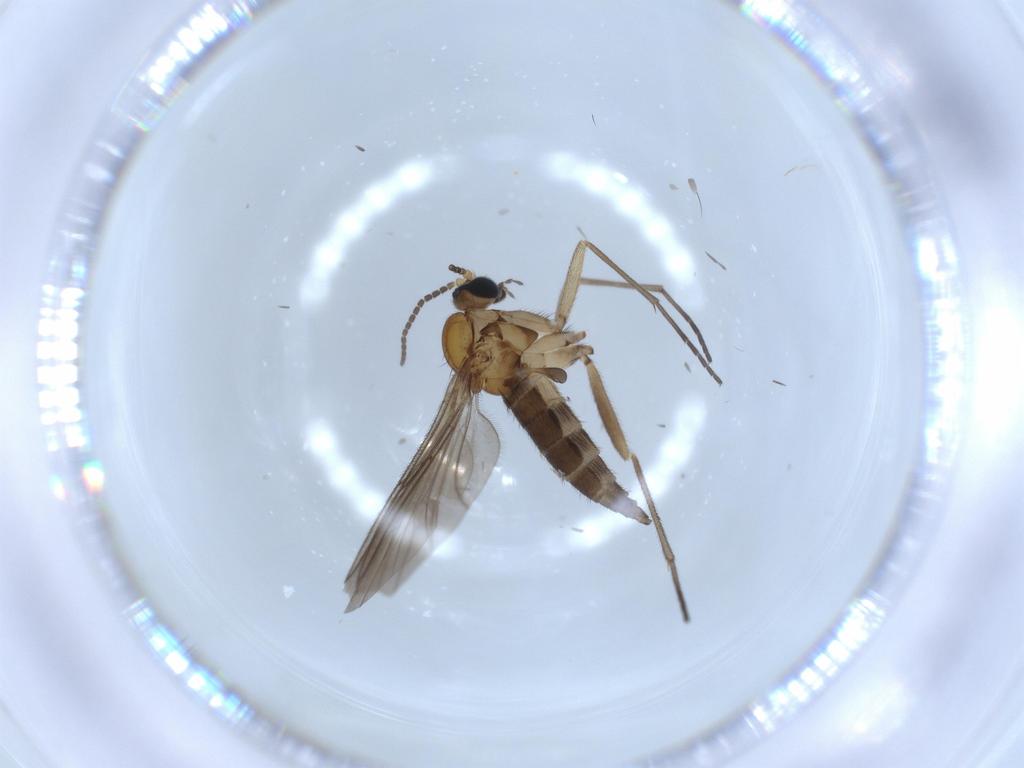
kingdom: Animalia
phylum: Arthropoda
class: Insecta
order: Diptera
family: Sciaridae
